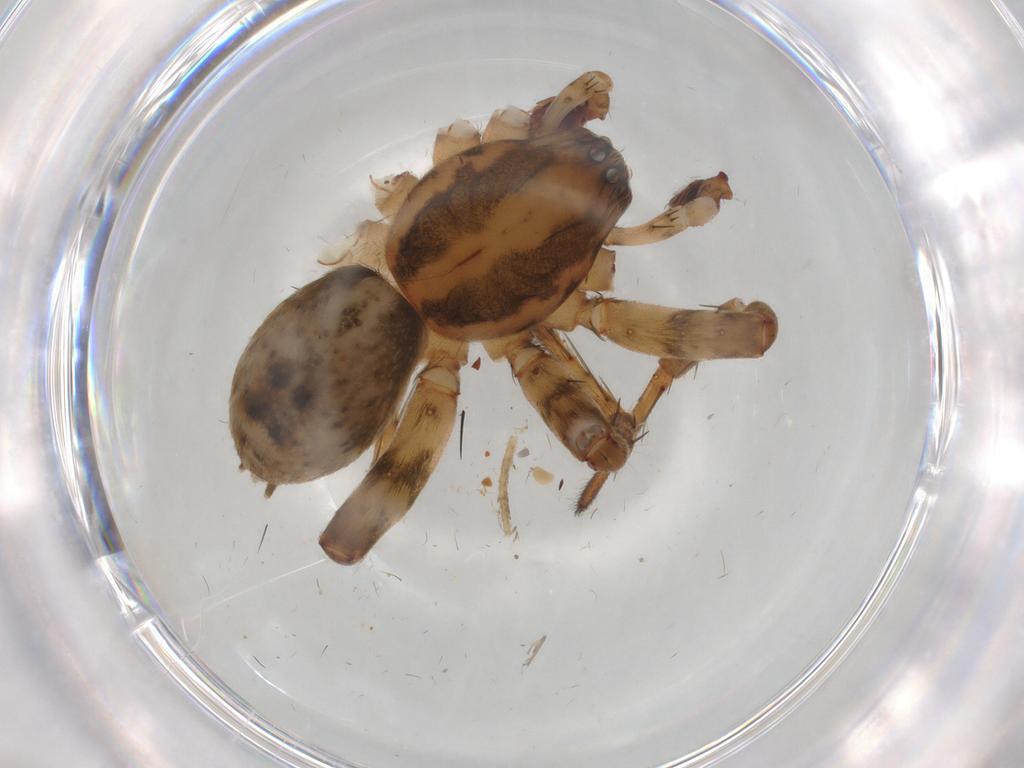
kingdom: Animalia
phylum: Arthropoda
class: Arachnida
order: Araneae
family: Anyphaenidae
